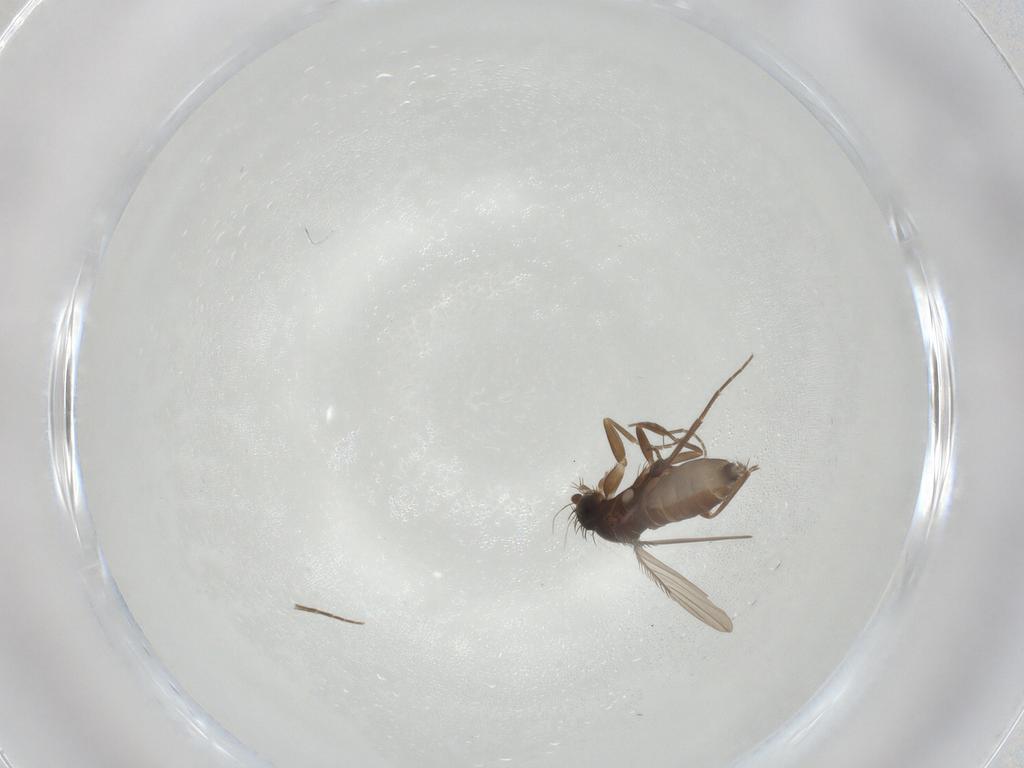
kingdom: Animalia
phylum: Arthropoda
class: Insecta
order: Diptera
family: Phoridae
